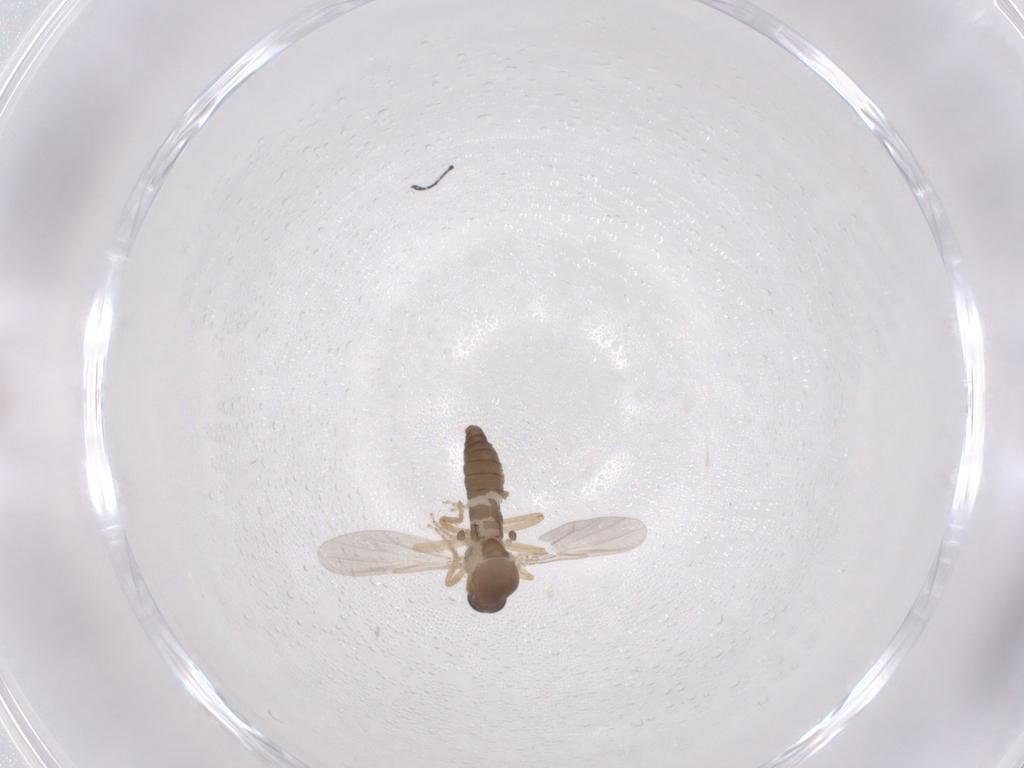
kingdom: Animalia
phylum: Arthropoda
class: Insecta
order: Diptera
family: Ceratopogonidae
